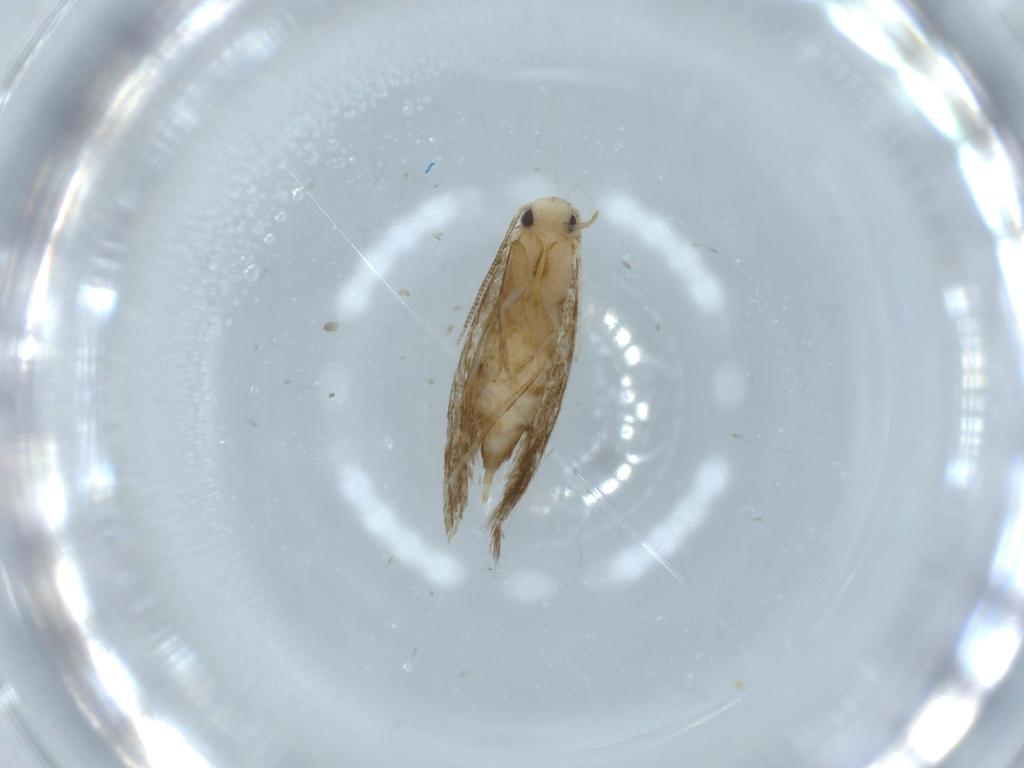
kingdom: Animalia
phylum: Arthropoda
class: Insecta
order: Lepidoptera
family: Tineidae
